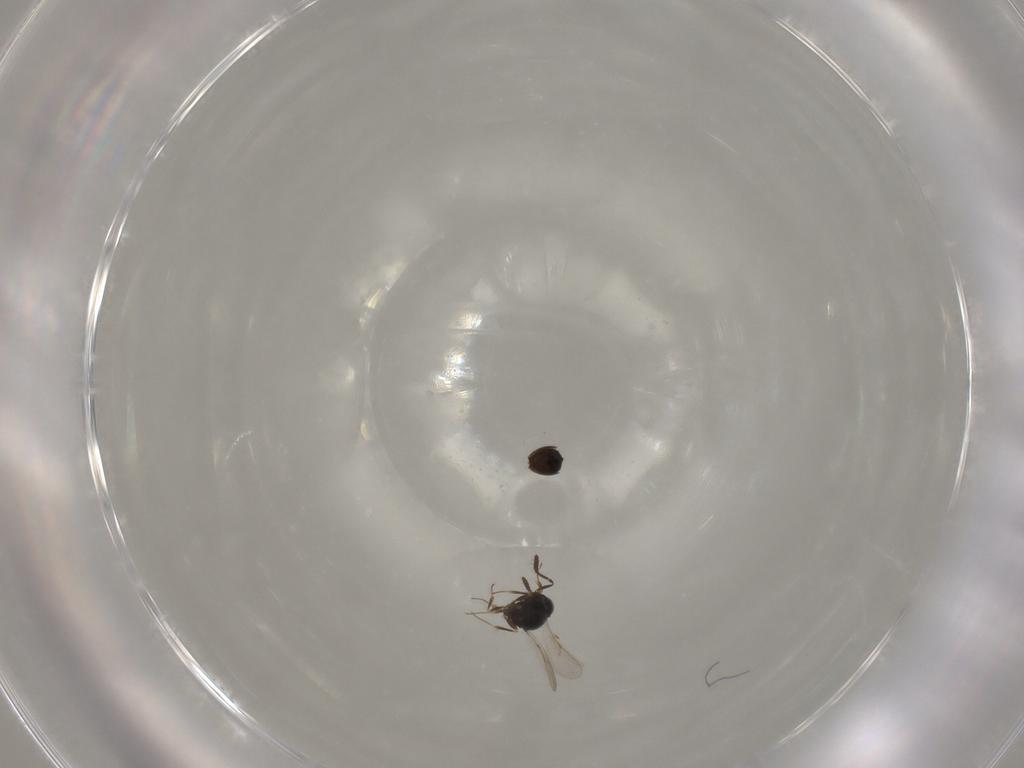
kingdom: Animalia
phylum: Arthropoda
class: Insecta
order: Hymenoptera
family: Scelionidae
